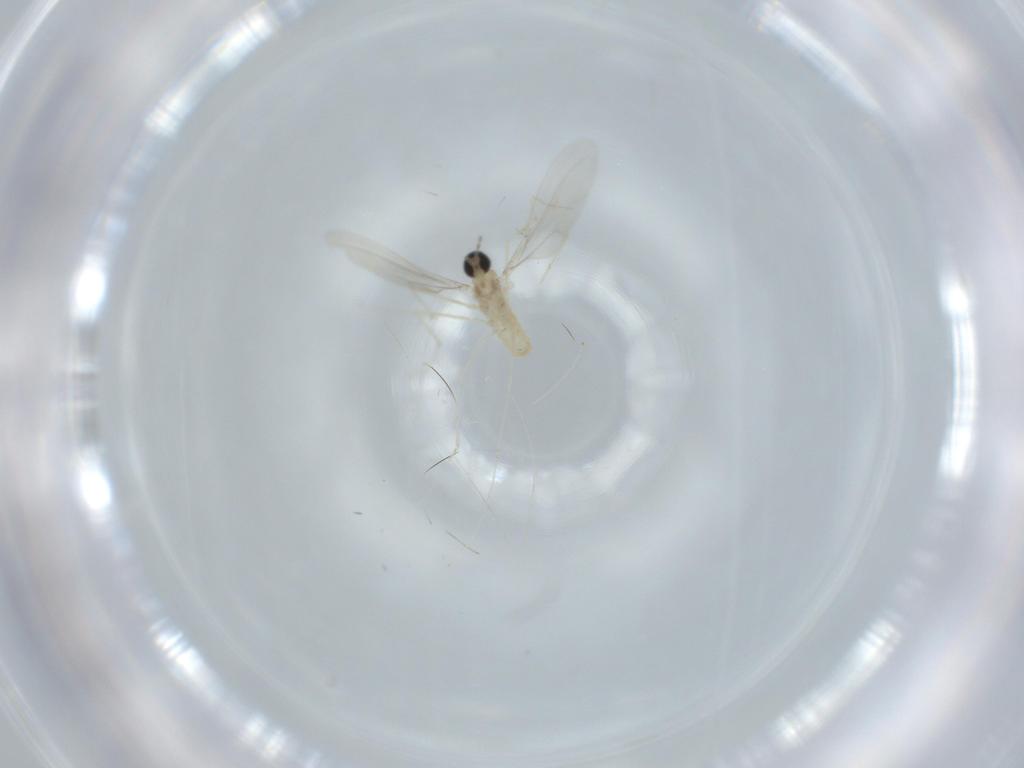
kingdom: Animalia
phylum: Arthropoda
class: Insecta
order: Diptera
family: Cecidomyiidae
